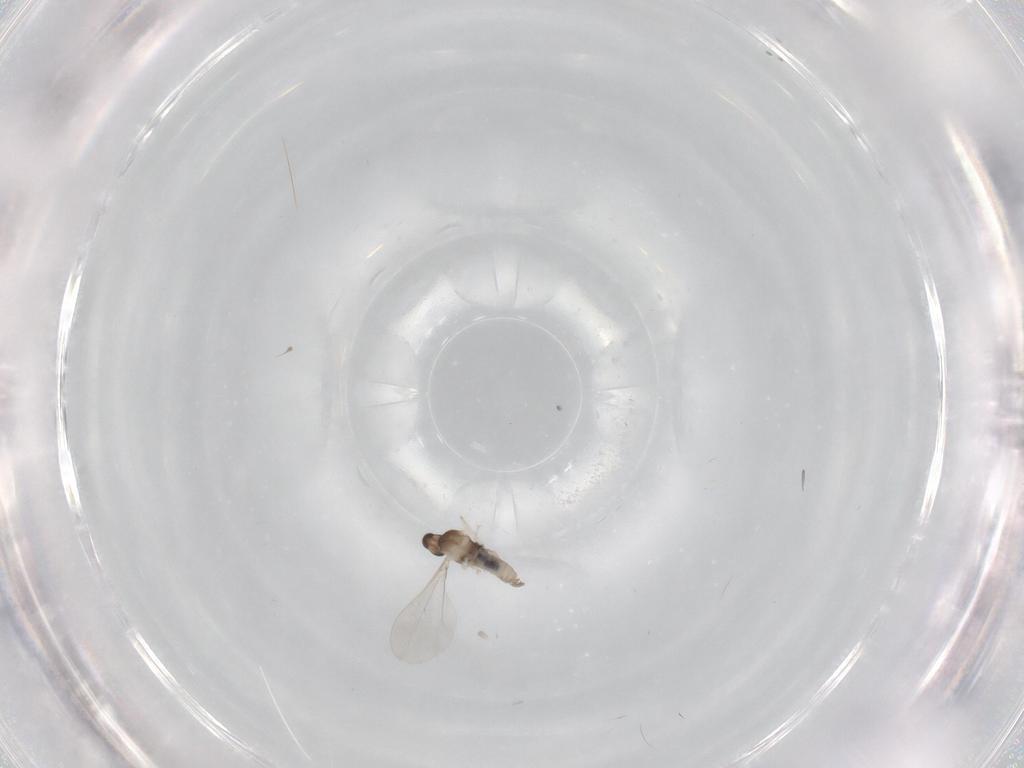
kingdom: Animalia
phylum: Arthropoda
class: Insecta
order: Diptera
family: Cecidomyiidae
